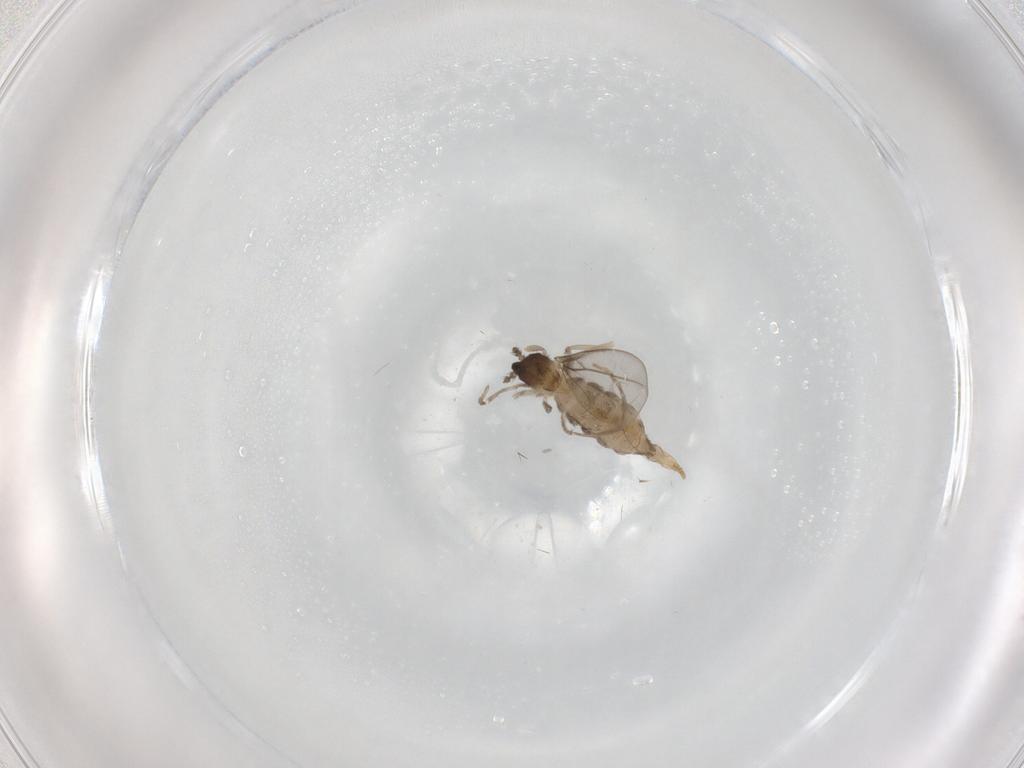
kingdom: Animalia
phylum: Arthropoda
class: Insecta
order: Diptera
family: Cecidomyiidae
